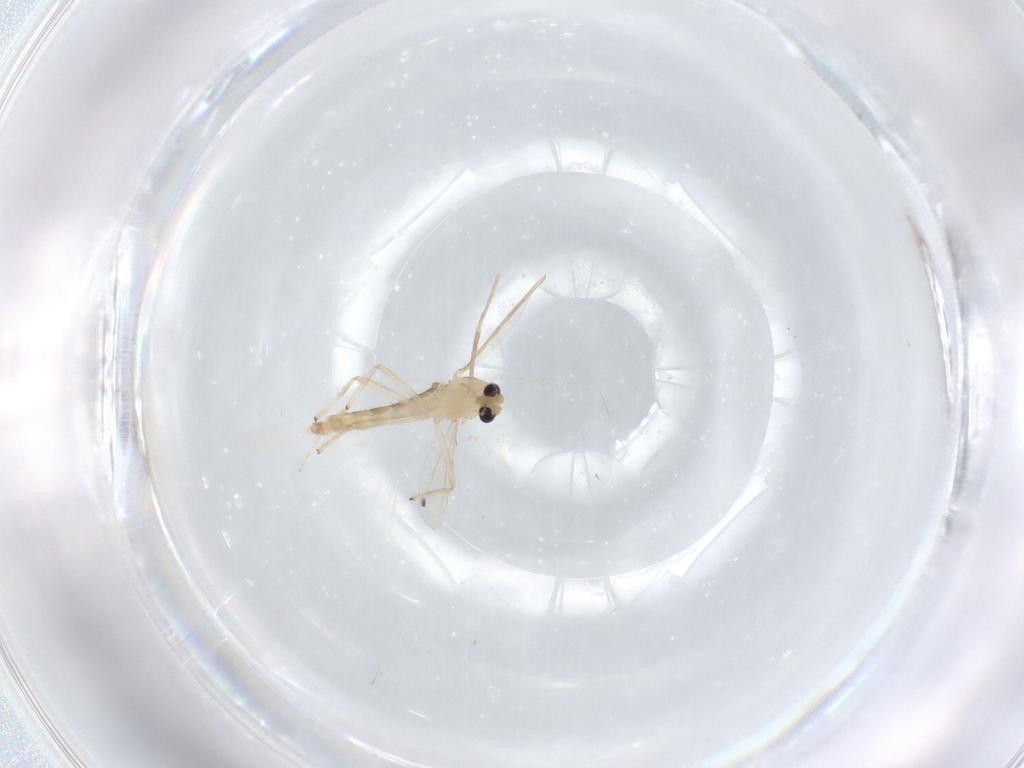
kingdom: Animalia
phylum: Arthropoda
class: Insecta
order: Diptera
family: Chironomidae
